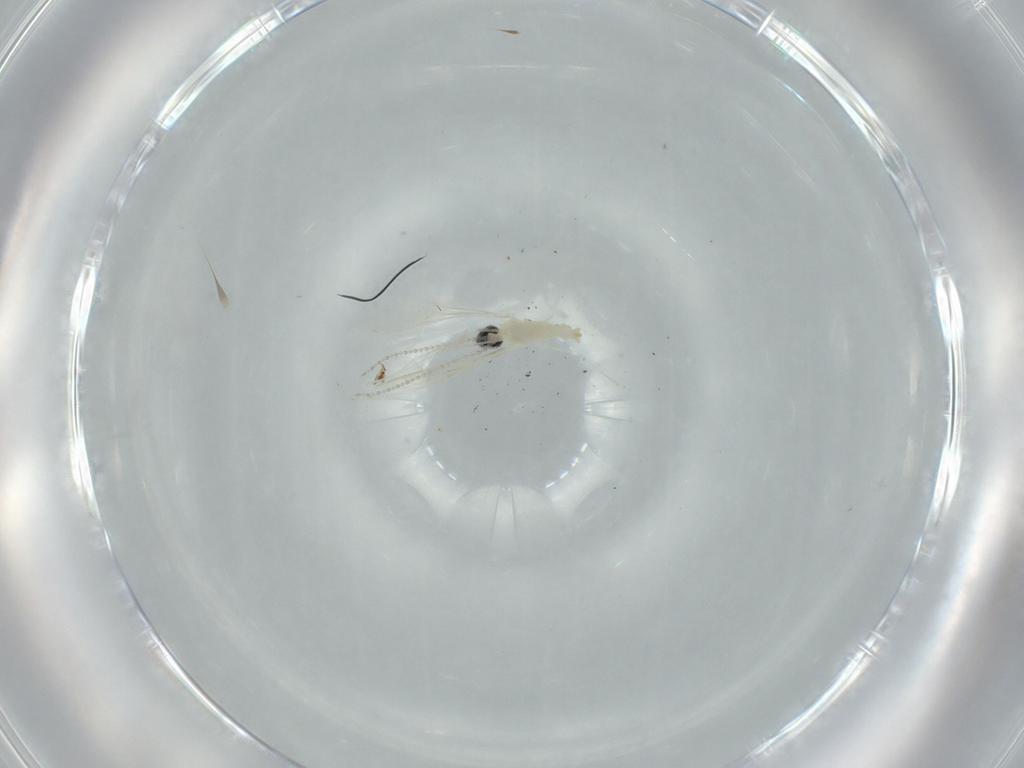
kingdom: Animalia
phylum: Arthropoda
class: Insecta
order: Diptera
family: Cecidomyiidae
